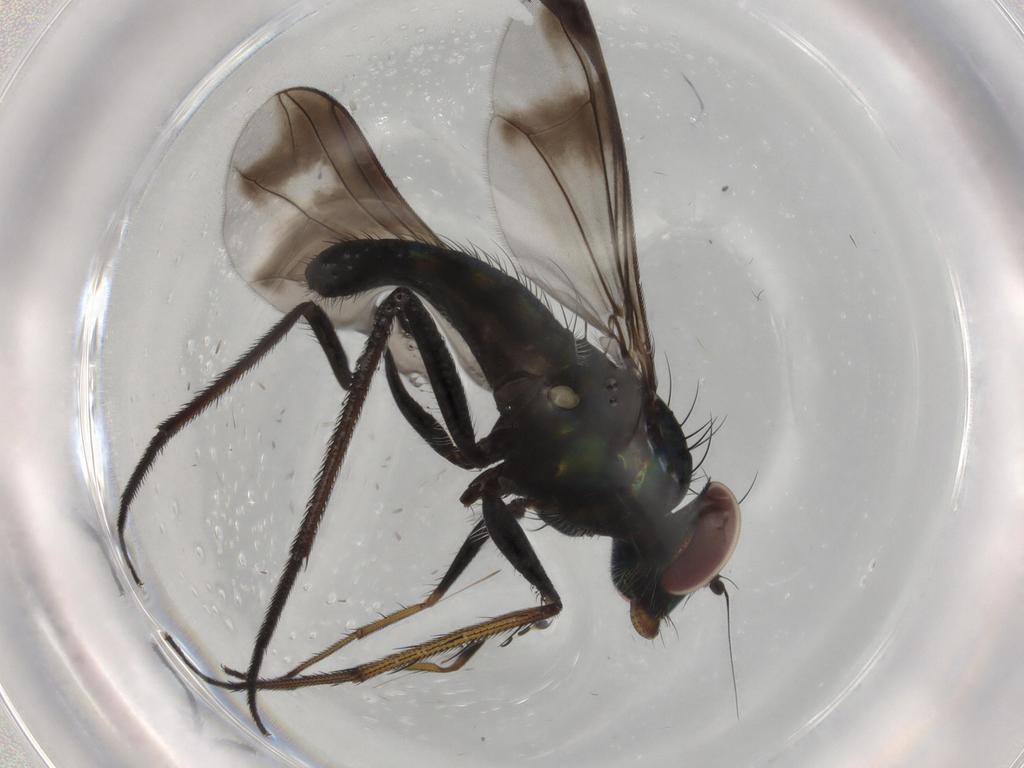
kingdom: Animalia
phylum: Arthropoda
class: Insecta
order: Diptera
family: Dolichopodidae
